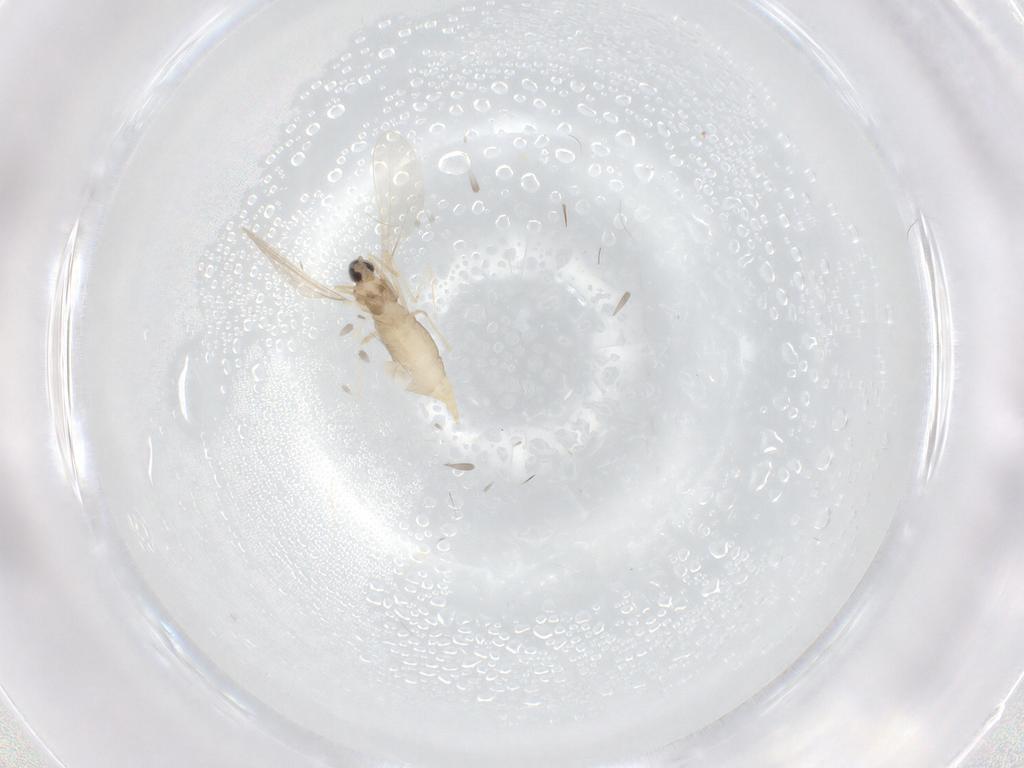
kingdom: Animalia
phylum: Arthropoda
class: Insecta
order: Diptera
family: Cecidomyiidae
